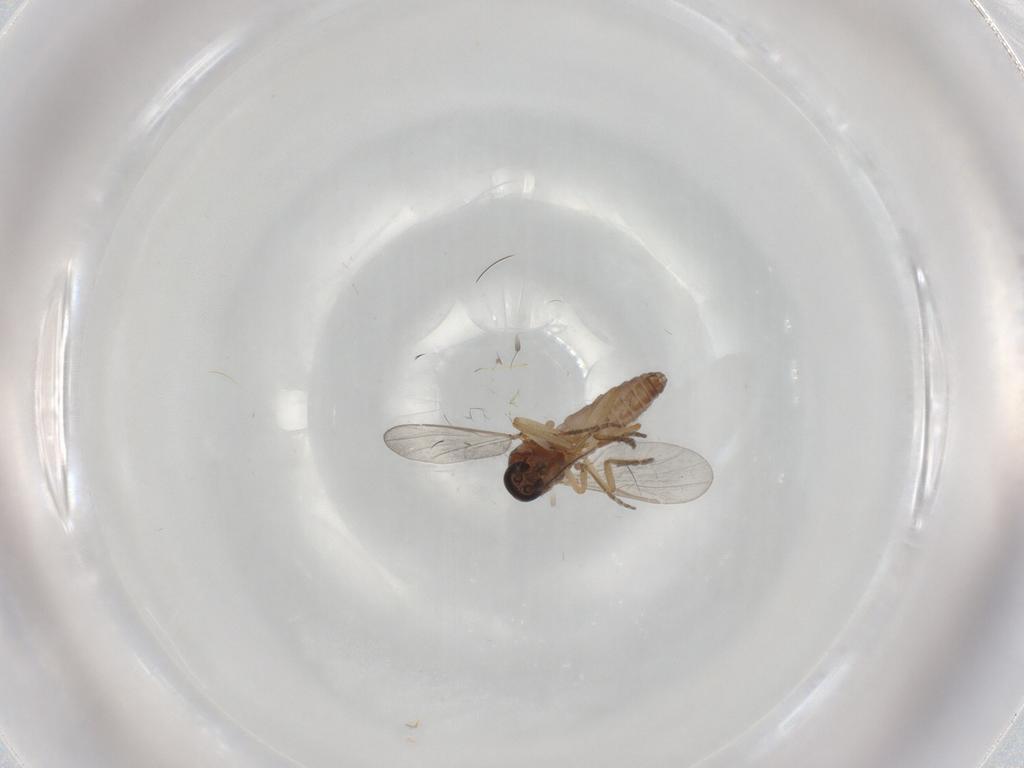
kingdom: Animalia
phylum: Arthropoda
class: Insecta
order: Diptera
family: Ceratopogonidae
